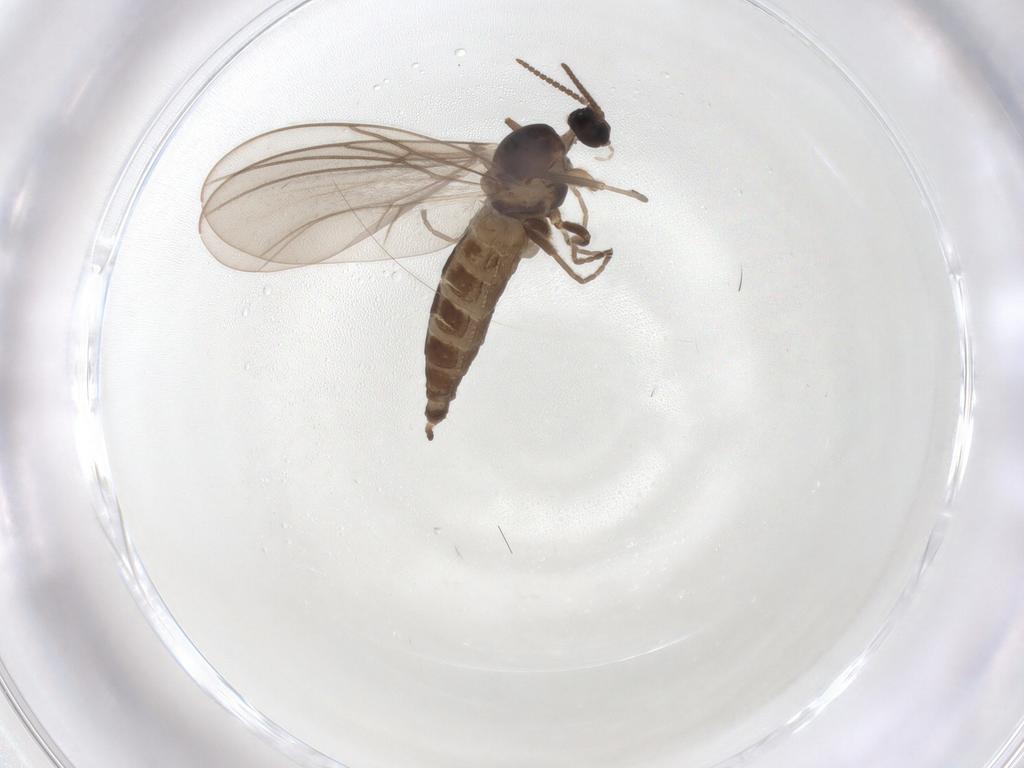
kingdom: Animalia
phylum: Arthropoda
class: Insecta
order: Diptera
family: Cecidomyiidae
